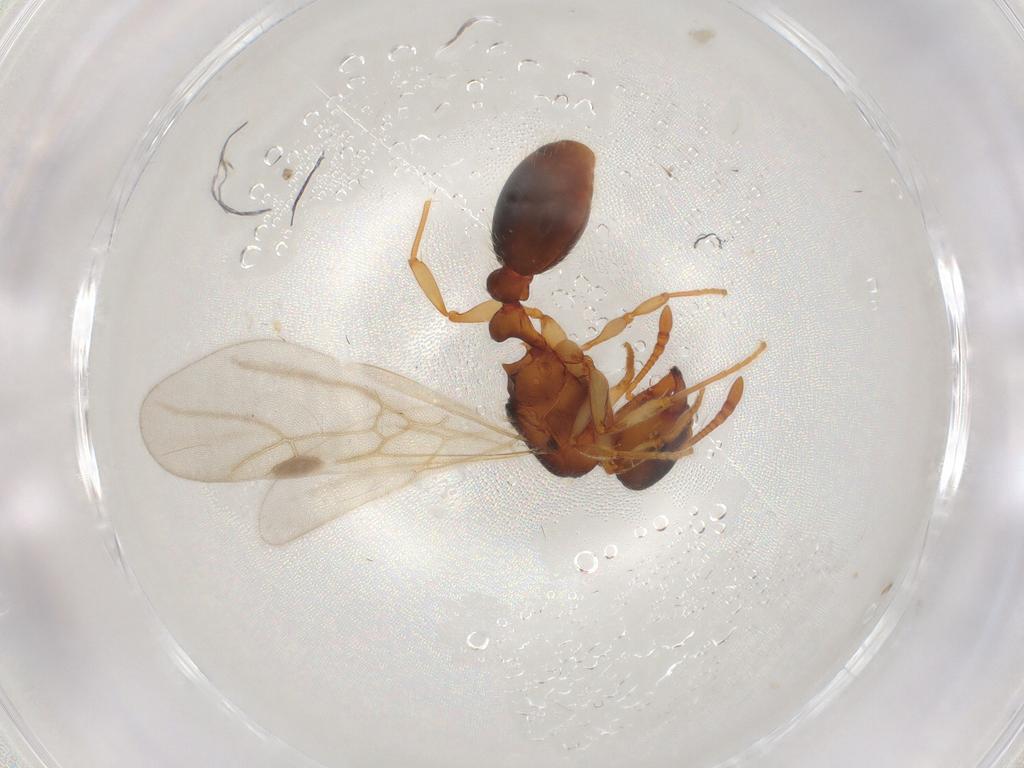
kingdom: Animalia
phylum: Arthropoda
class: Insecta
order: Hymenoptera
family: Formicidae
